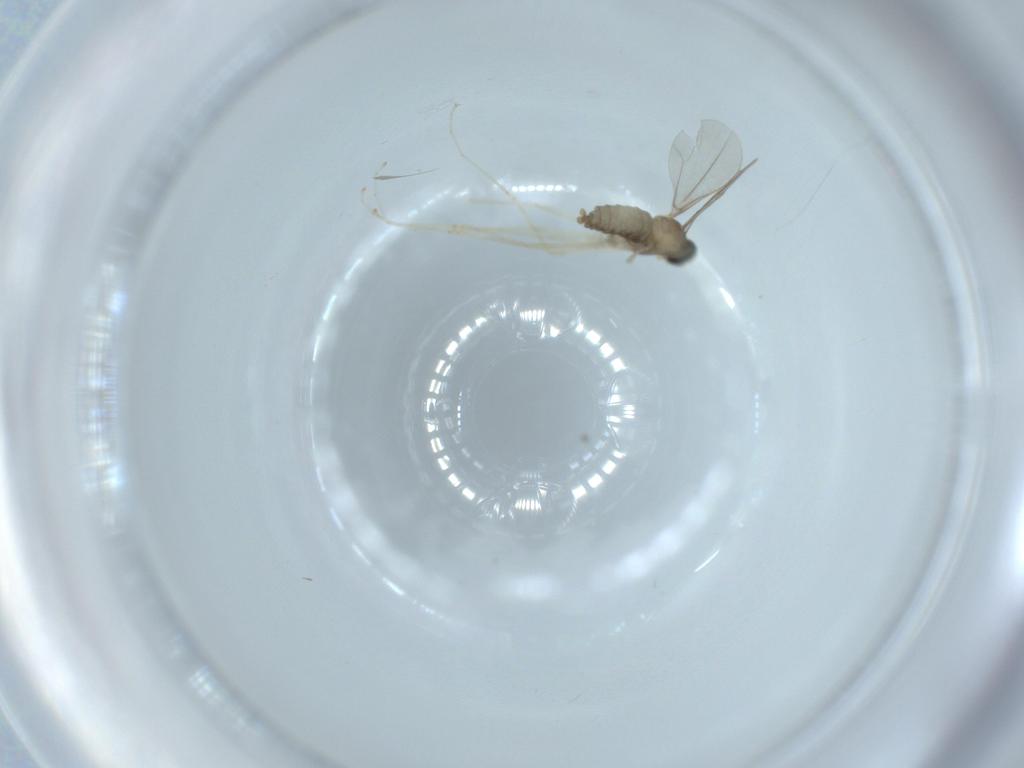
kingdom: Animalia
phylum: Arthropoda
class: Insecta
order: Diptera
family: Cecidomyiidae
